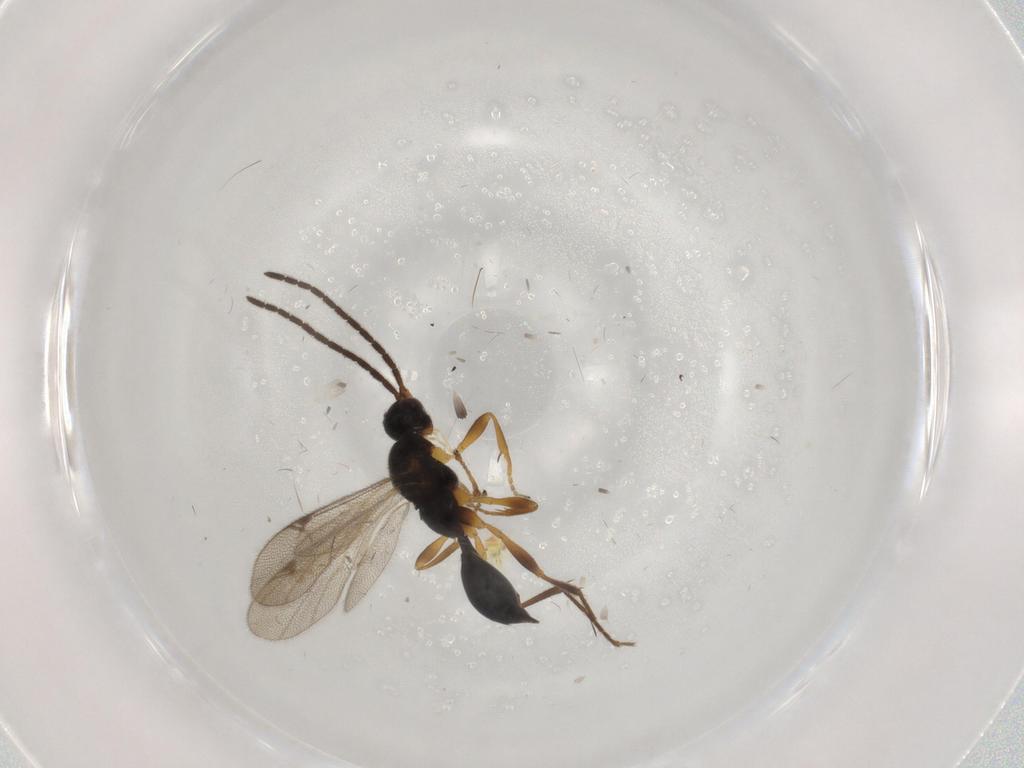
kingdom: Animalia
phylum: Arthropoda
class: Insecta
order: Hymenoptera
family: Proctotrupidae
